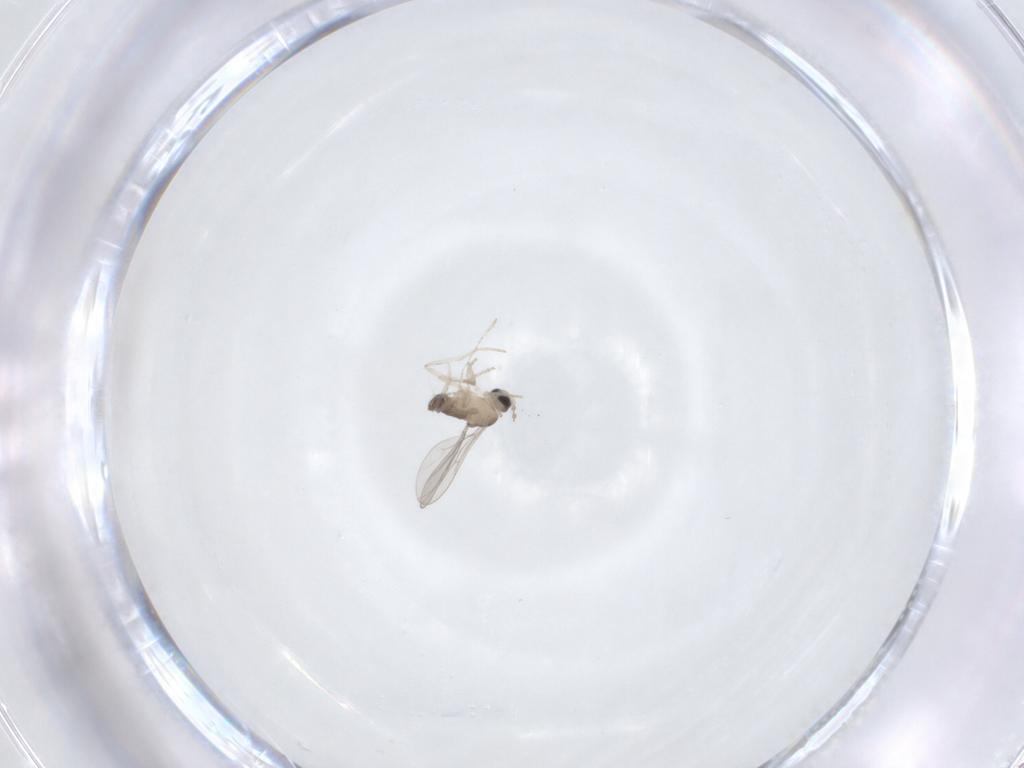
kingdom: Animalia
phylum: Arthropoda
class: Insecta
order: Diptera
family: Cecidomyiidae
